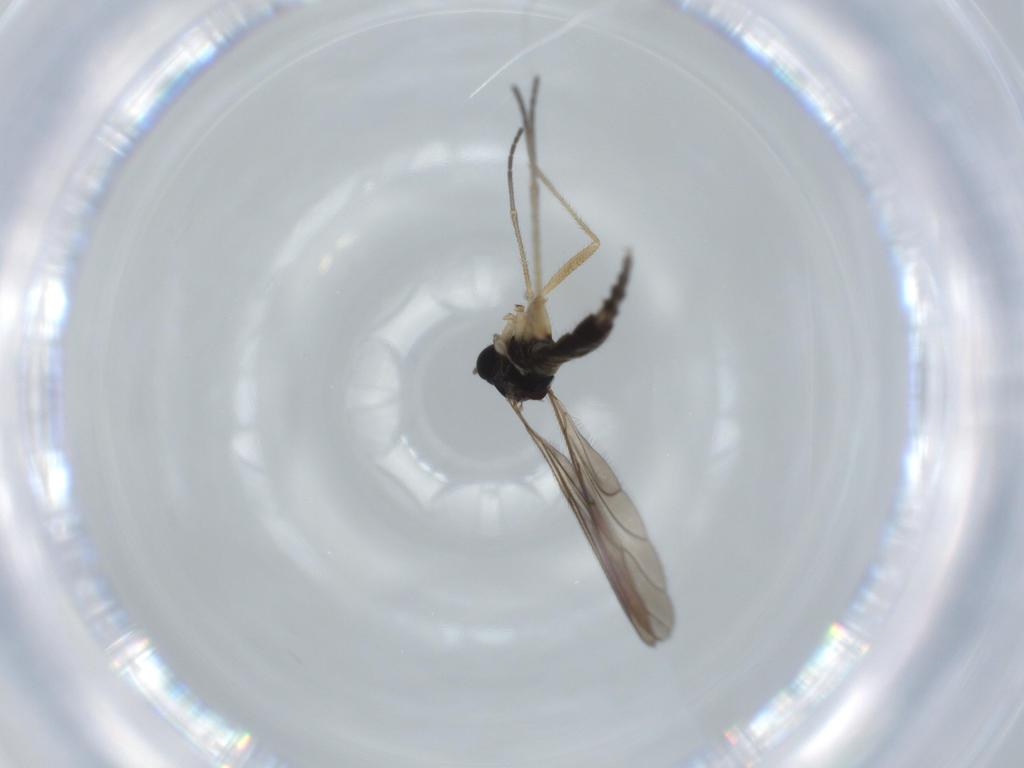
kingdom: Animalia
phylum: Arthropoda
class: Insecta
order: Diptera
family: Sciaridae
